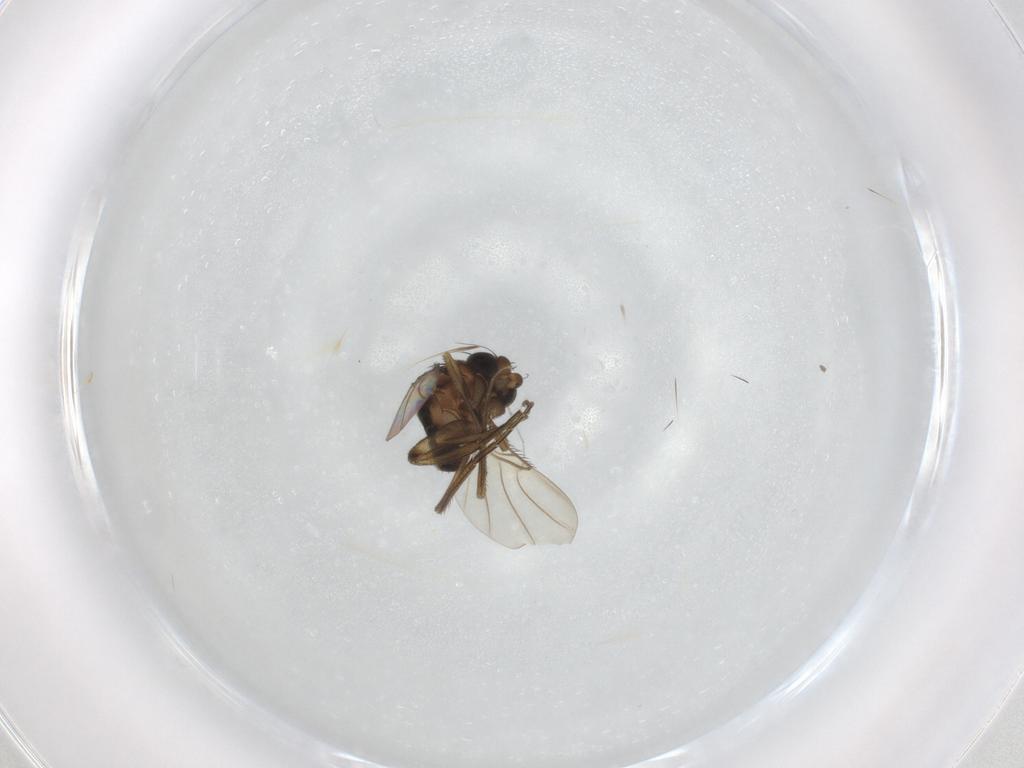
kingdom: Animalia
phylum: Arthropoda
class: Insecta
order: Diptera
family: Phoridae
